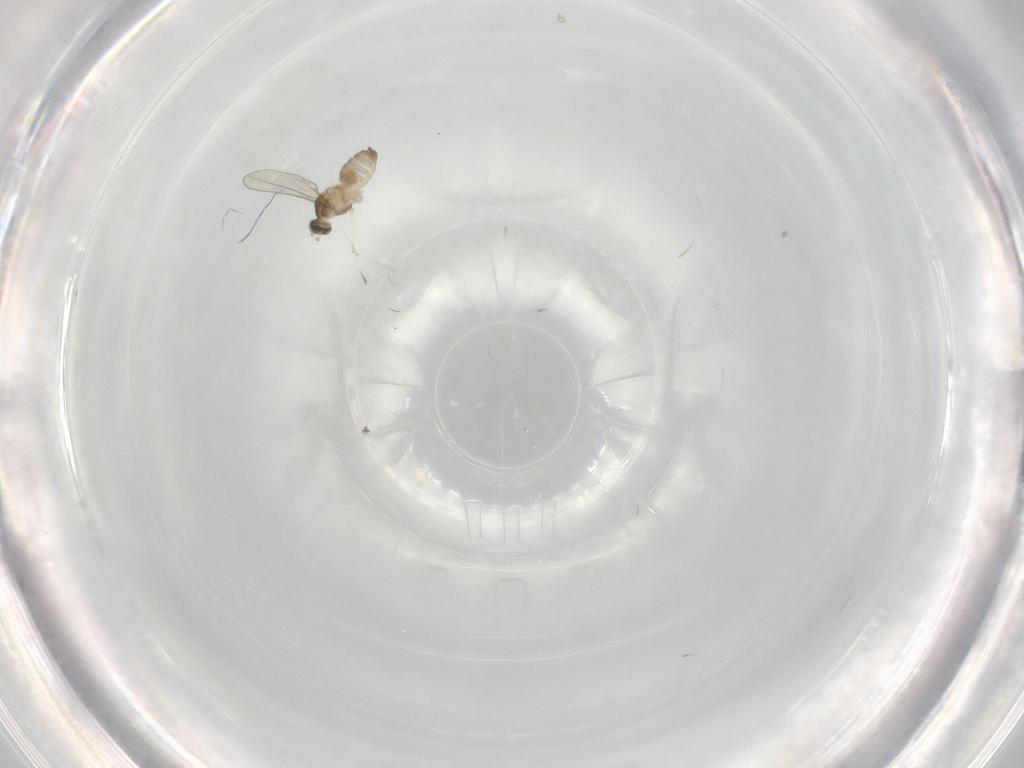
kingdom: Animalia
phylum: Arthropoda
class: Insecta
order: Diptera
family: Cecidomyiidae
